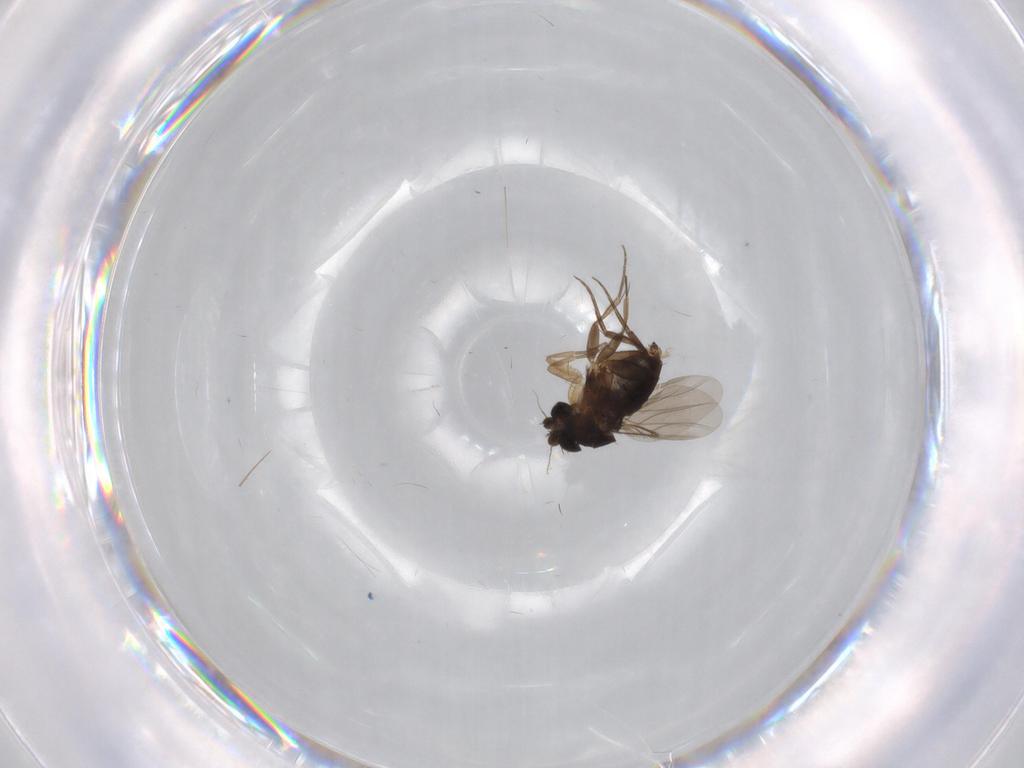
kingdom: Animalia
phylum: Arthropoda
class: Insecta
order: Diptera
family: Phoridae
